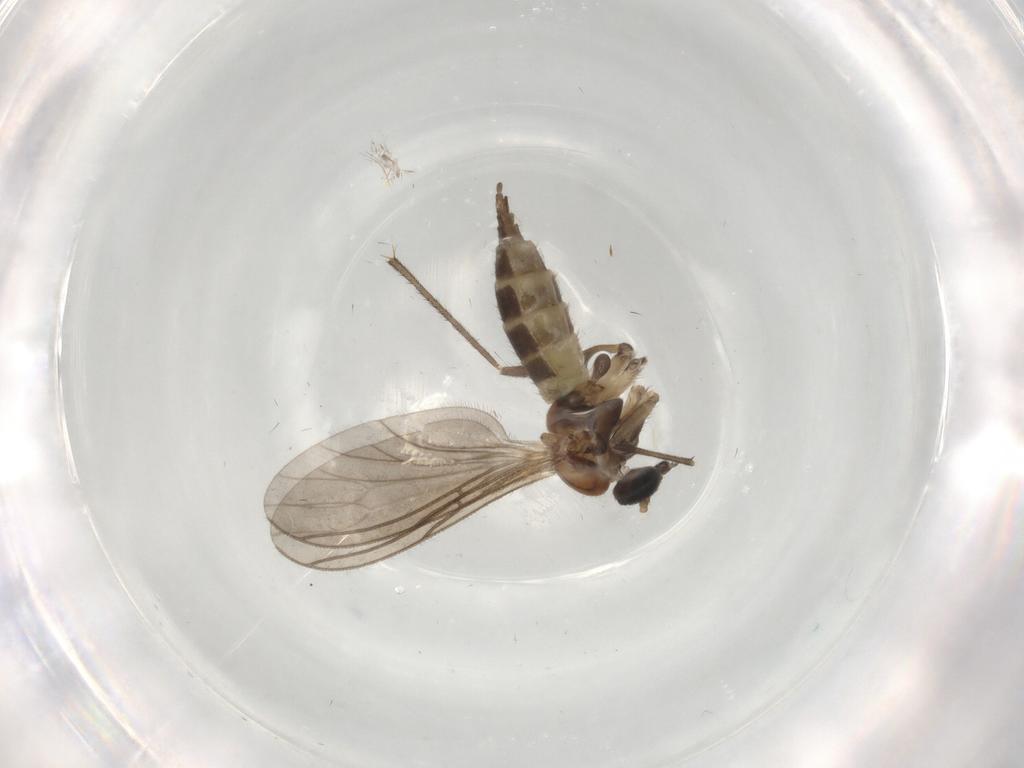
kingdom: Animalia
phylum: Arthropoda
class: Insecta
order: Diptera
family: Sciaridae
